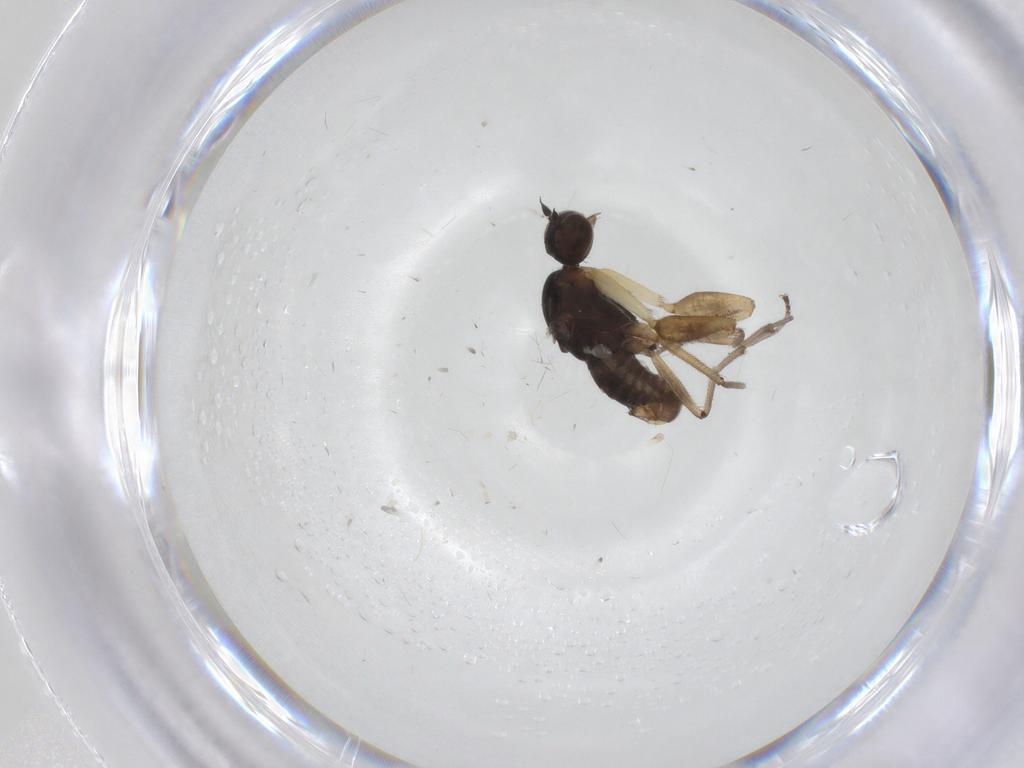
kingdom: Animalia
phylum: Arthropoda
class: Insecta
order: Diptera
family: Empididae
